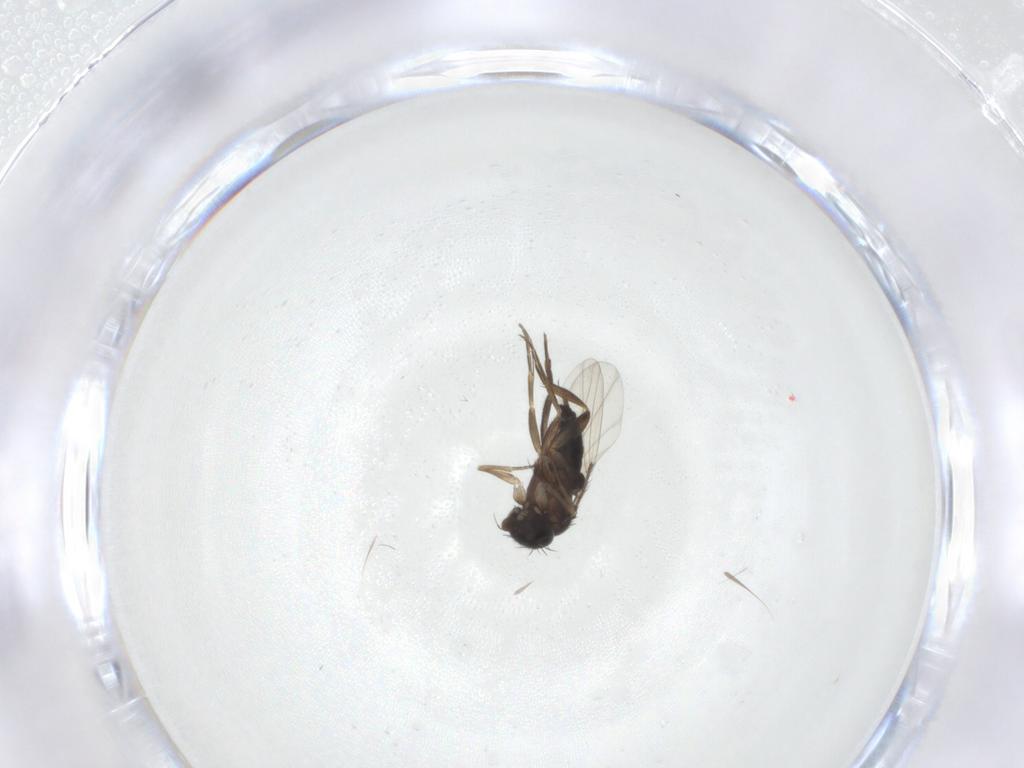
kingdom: Animalia
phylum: Arthropoda
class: Insecta
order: Diptera
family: Phoridae
